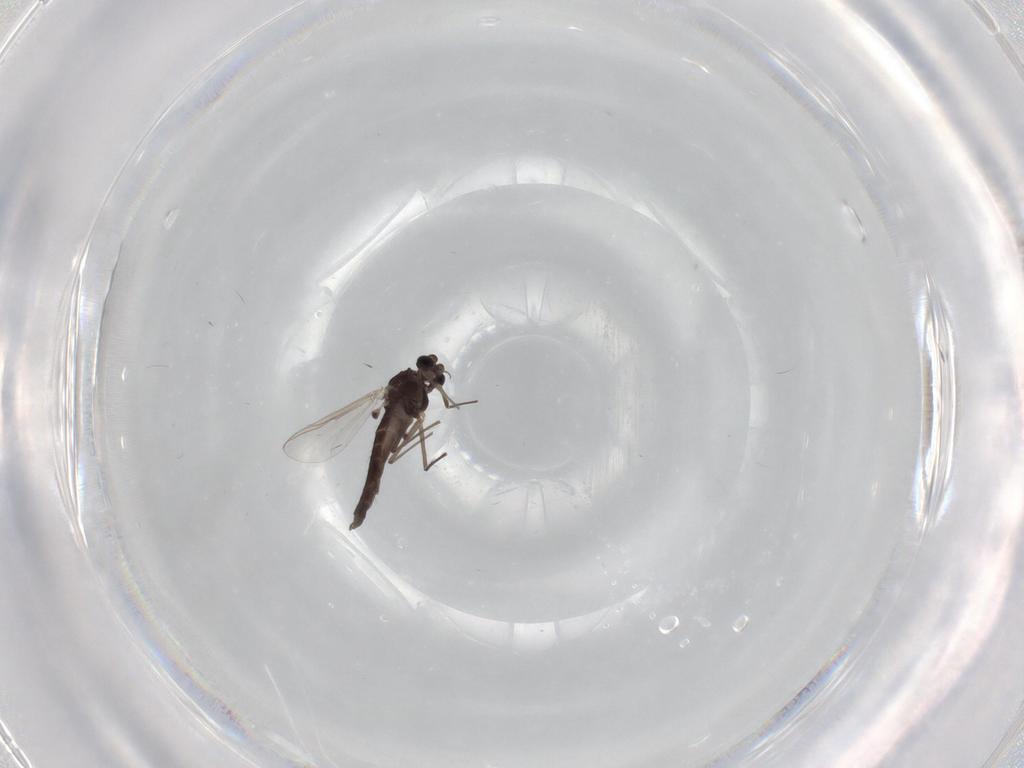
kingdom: Animalia
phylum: Arthropoda
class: Insecta
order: Diptera
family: Chironomidae
